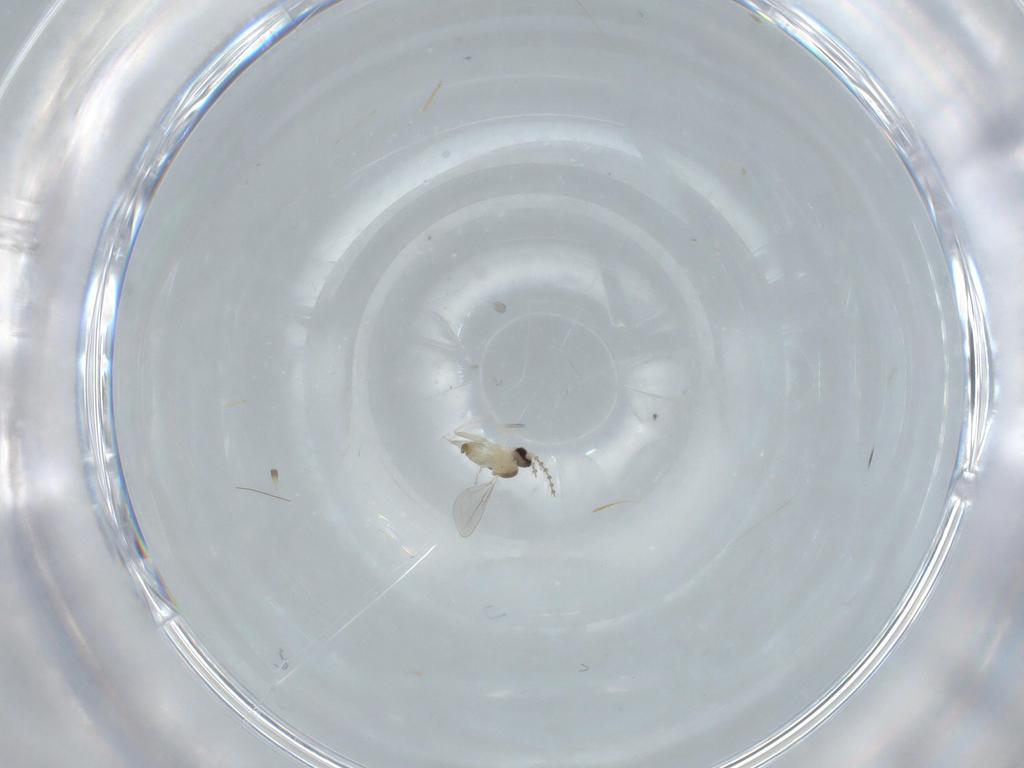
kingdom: Animalia
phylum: Arthropoda
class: Insecta
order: Diptera
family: Cecidomyiidae
